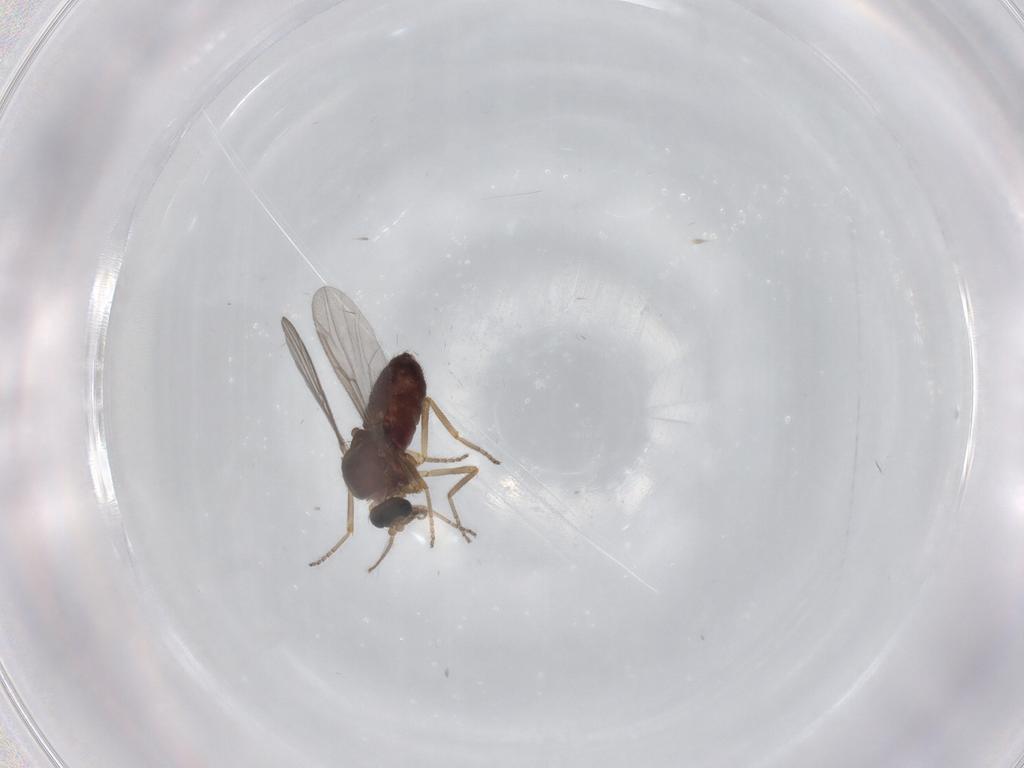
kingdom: Animalia
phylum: Arthropoda
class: Insecta
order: Diptera
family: Ceratopogonidae
